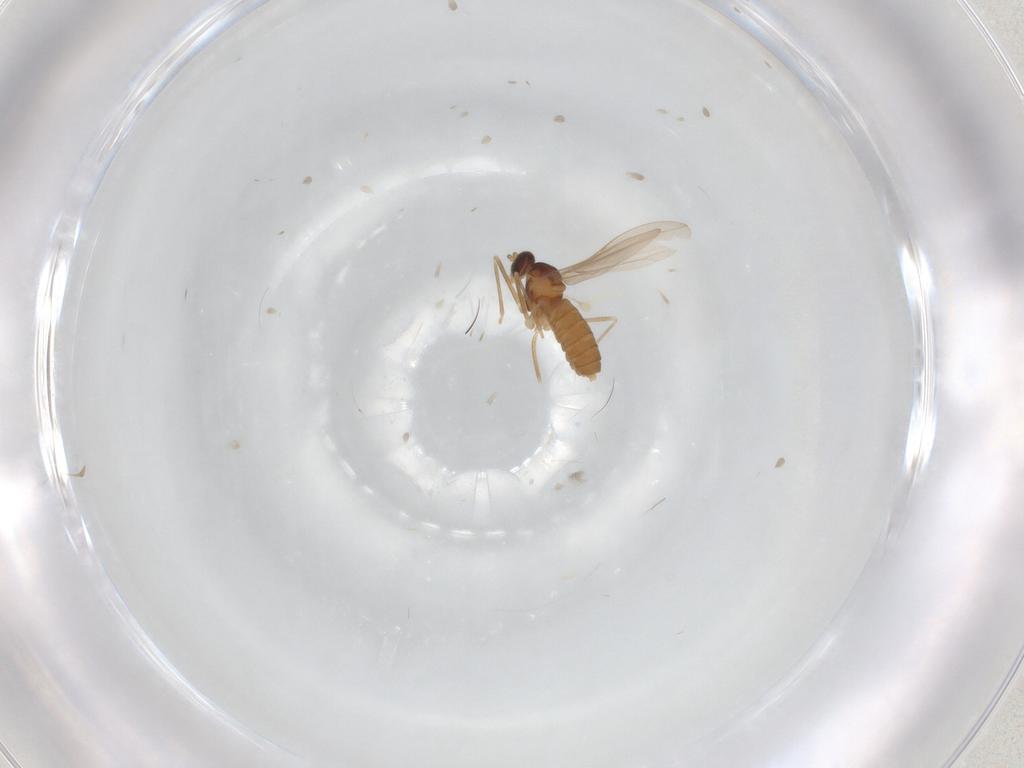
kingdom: Animalia
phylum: Arthropoda
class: Insecta
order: Diptera
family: Cecidomyiidae
